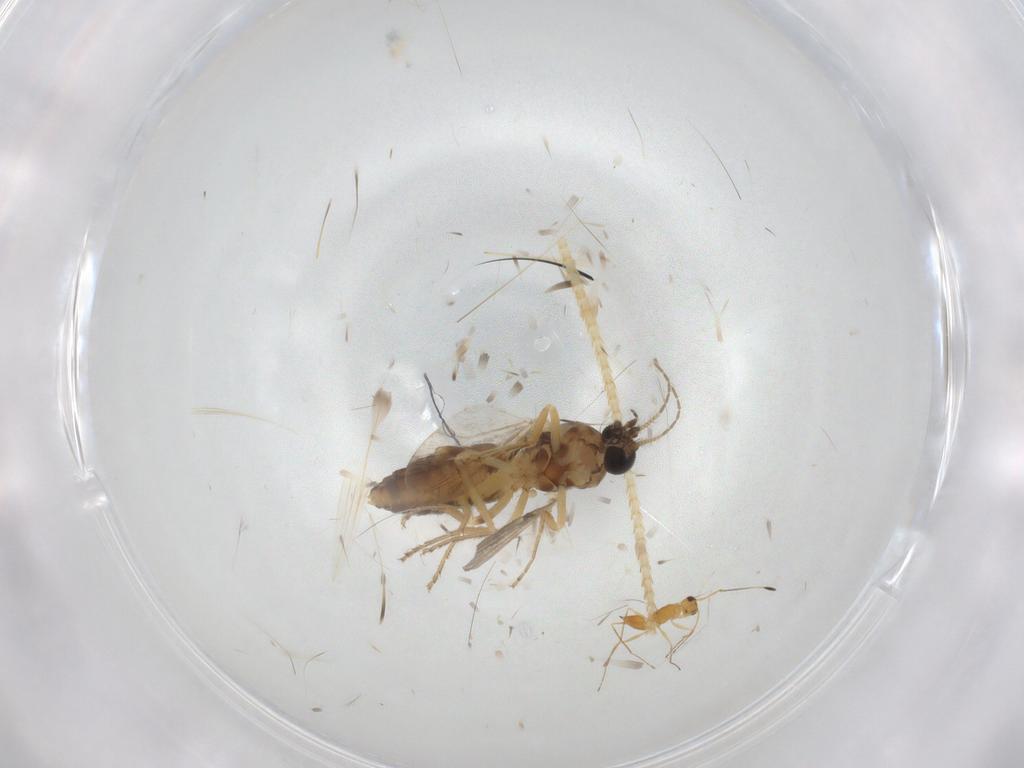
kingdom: Animalia
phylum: Arthropoda
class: Insecta
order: Diptera
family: Ceratopogonidae
